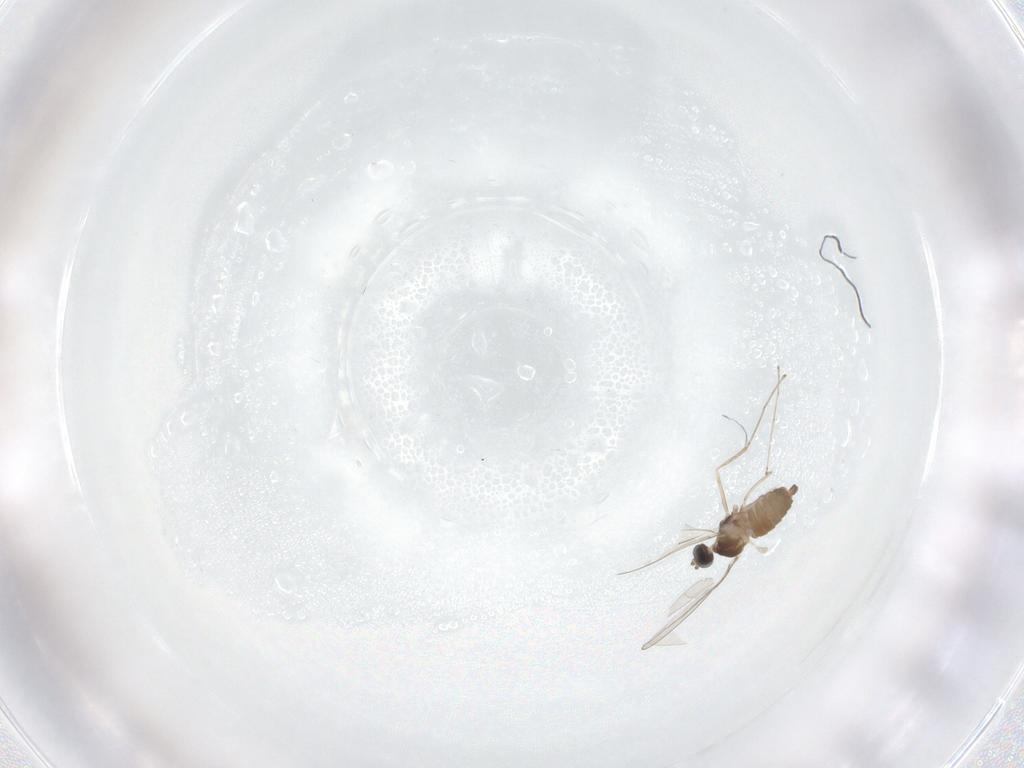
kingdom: Animalia
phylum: Arthropoda
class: Insecta
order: Diptera
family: Cecidomyiidae
